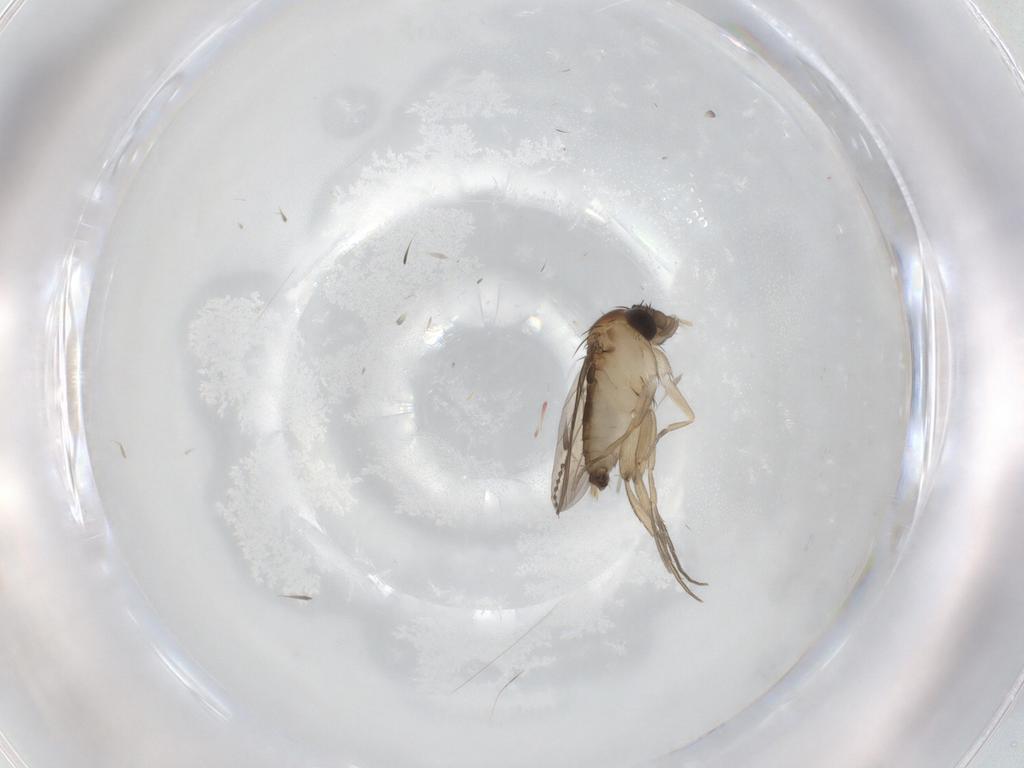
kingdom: Animalia
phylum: Arthropoda
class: Insecta
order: Diptera
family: Phoridae
